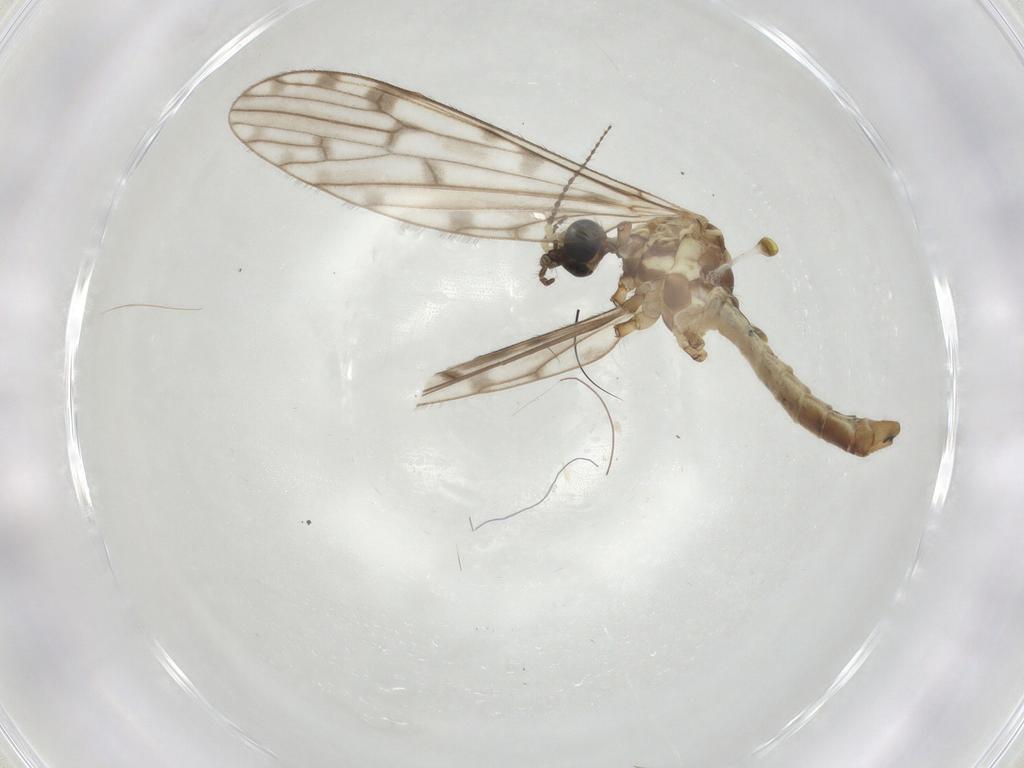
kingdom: Animalia
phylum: Arthropoda
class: Insecta
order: Diptera
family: Limoniidae
